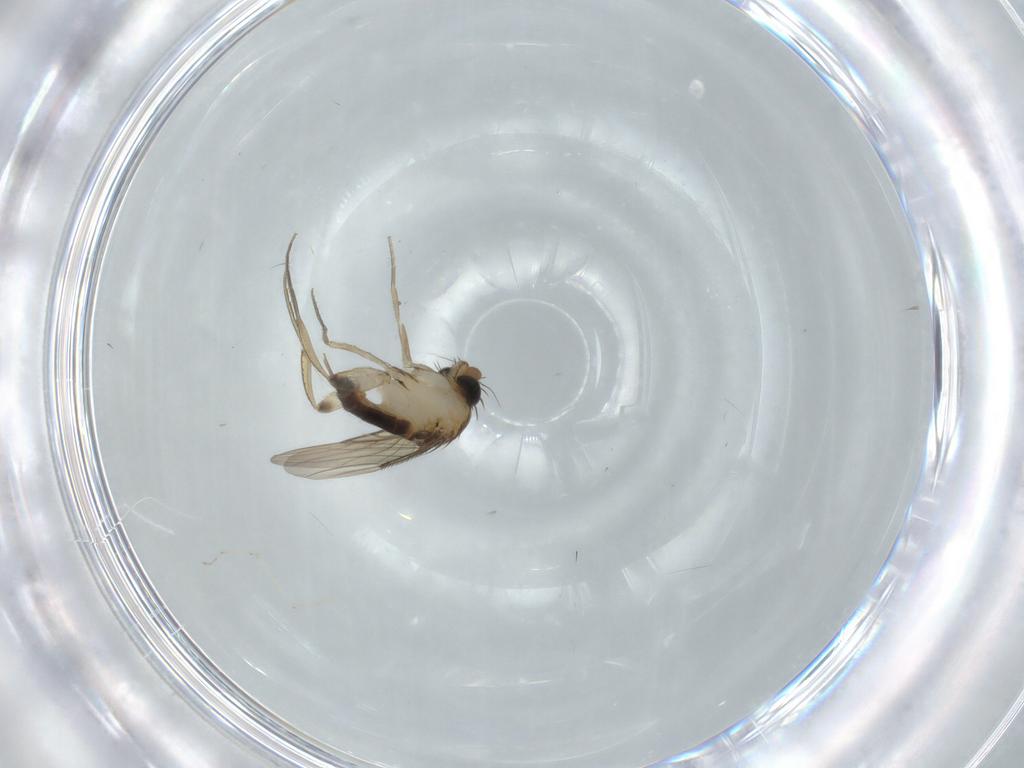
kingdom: Animalia
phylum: Arthropoda
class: Insecta
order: Diptera
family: Phoridae
